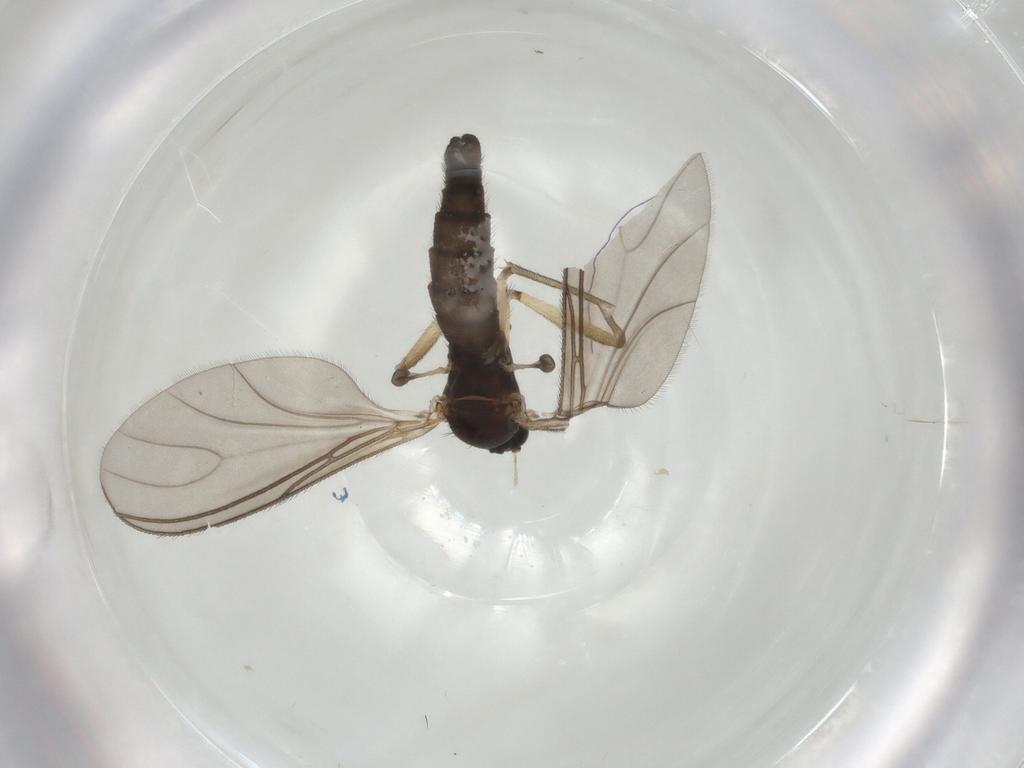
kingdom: Animalia
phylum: Arthropoda
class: Insecta
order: Diptera
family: Sciaridae
